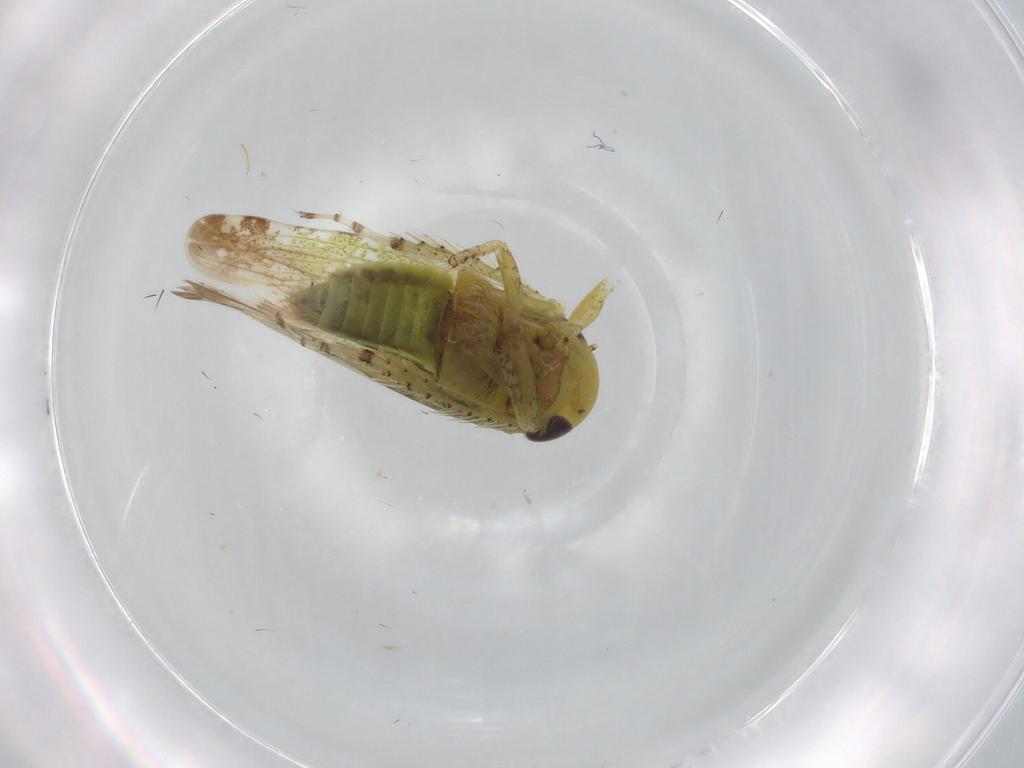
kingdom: Animalia
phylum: Arthropoda
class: Insecta
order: Hemiptera
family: Cicadellidae
